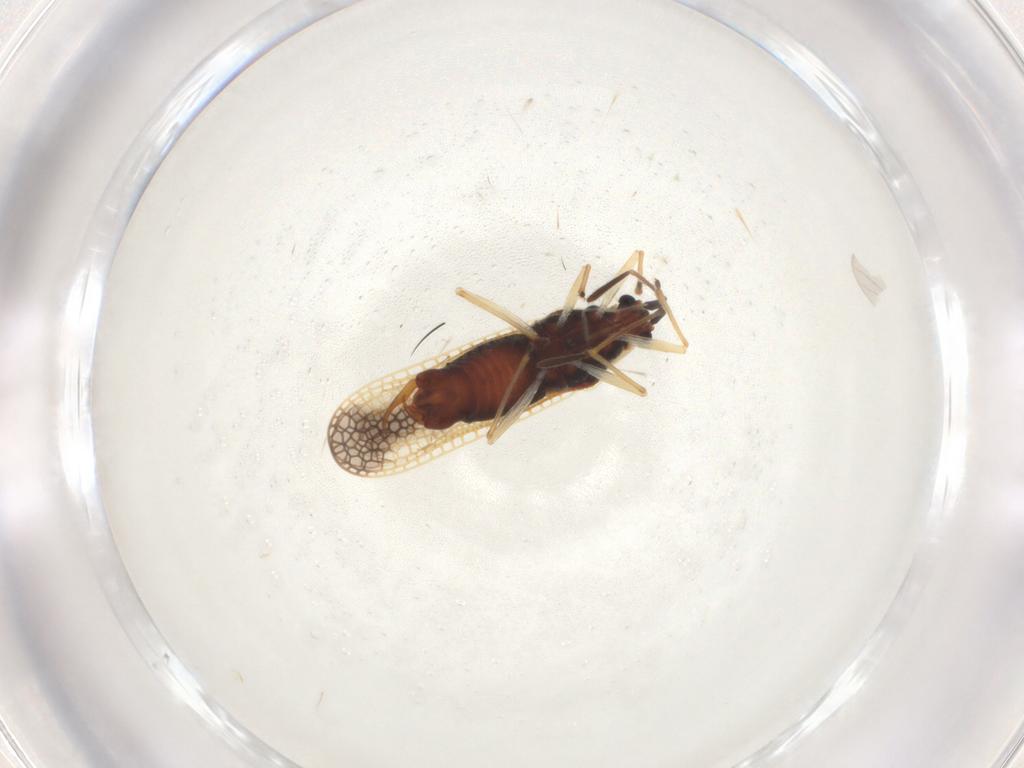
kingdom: Animalia
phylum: Arthropoda
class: Insecta
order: Hemiptera
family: Tingidae
